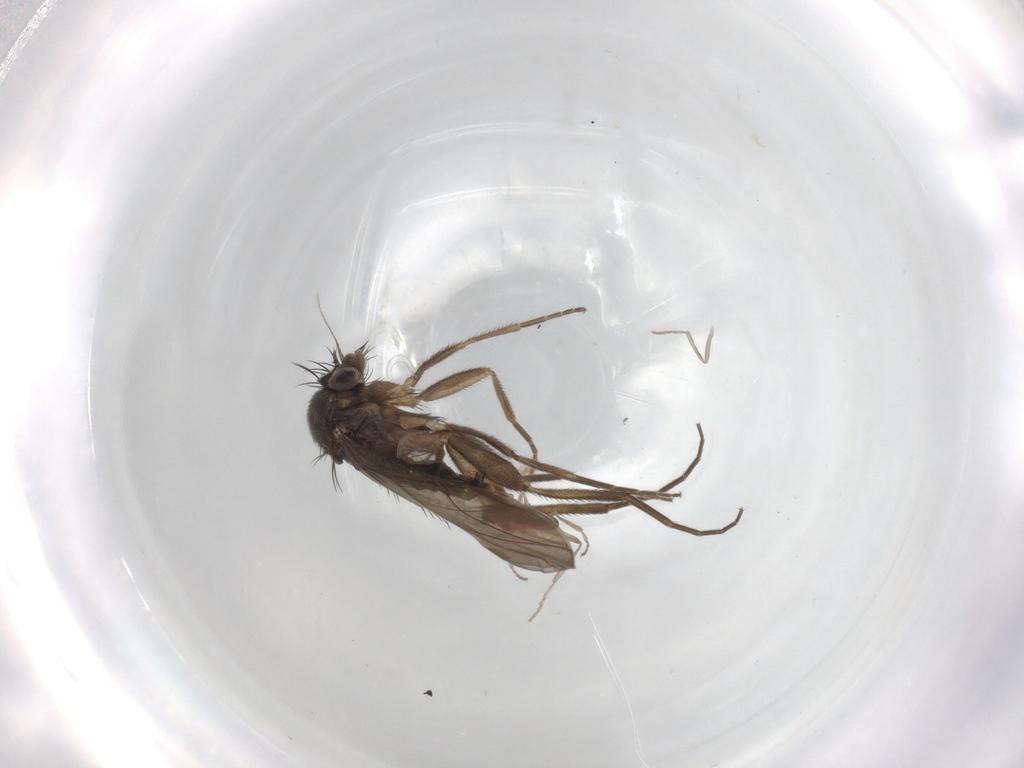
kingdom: Animalia
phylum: Arthropoda
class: Insecta
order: Diptera
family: Phoridae
